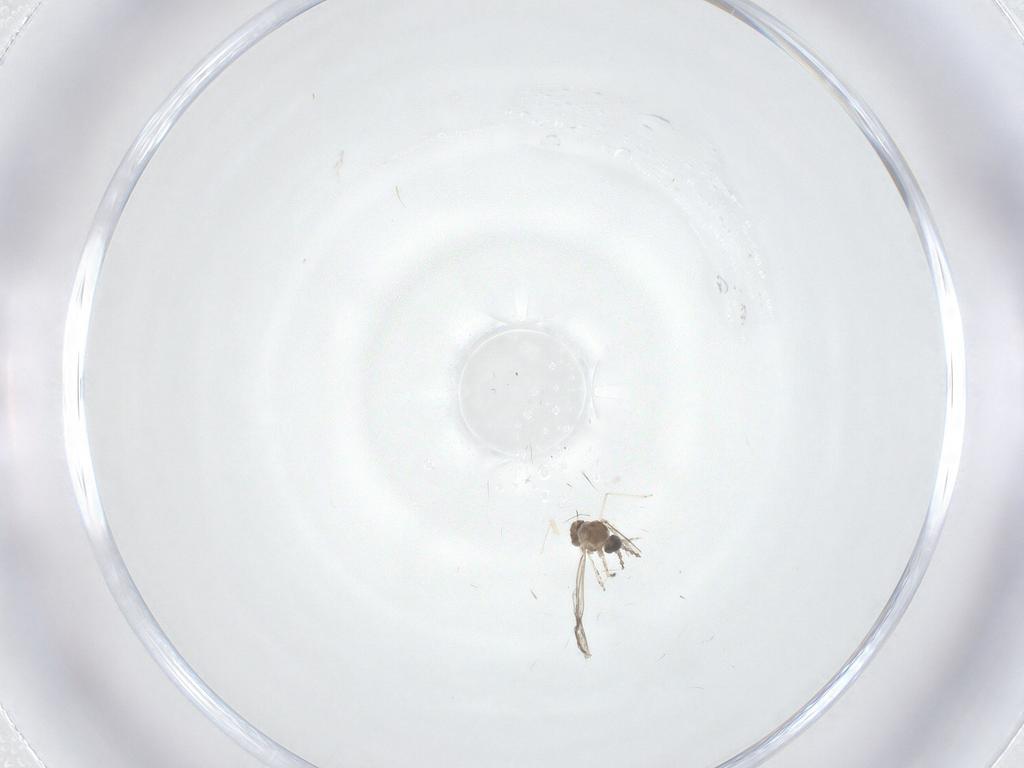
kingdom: Animalia
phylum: Arthropoda
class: Insecta
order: Diptera
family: Cecidomyiidae
